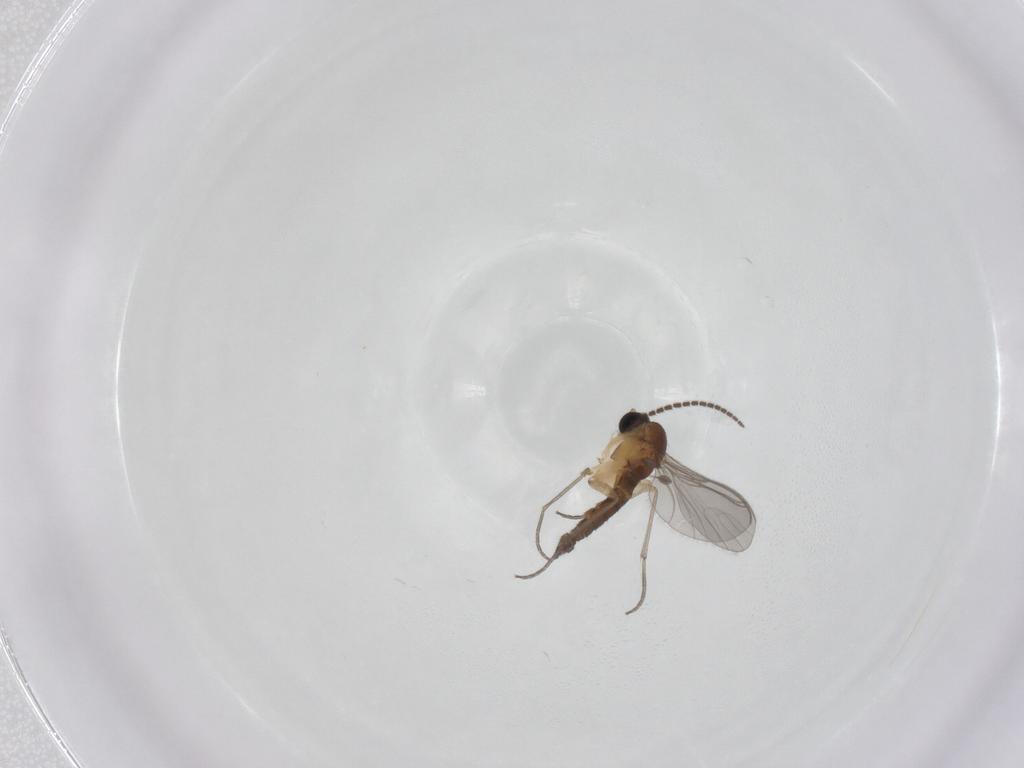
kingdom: Animalia
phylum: Arthropoda
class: Insecta
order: Diptera
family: Sciaridae
